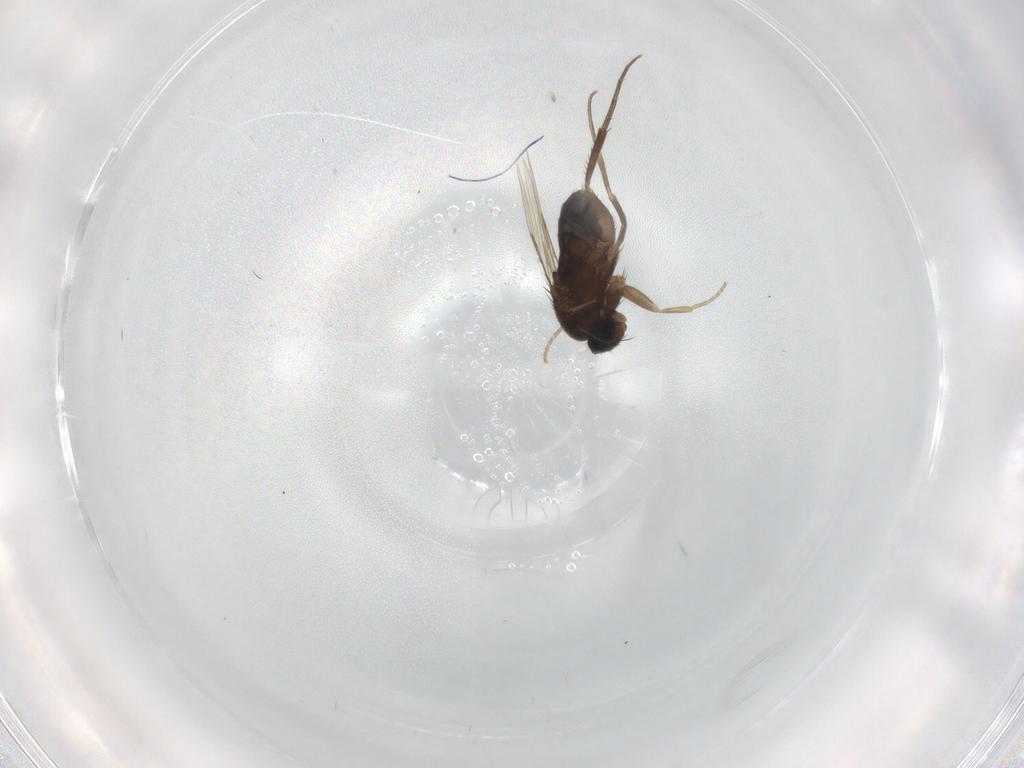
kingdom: Animalia
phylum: Arthropoda
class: Insecta
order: Diptera
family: Phoridae
